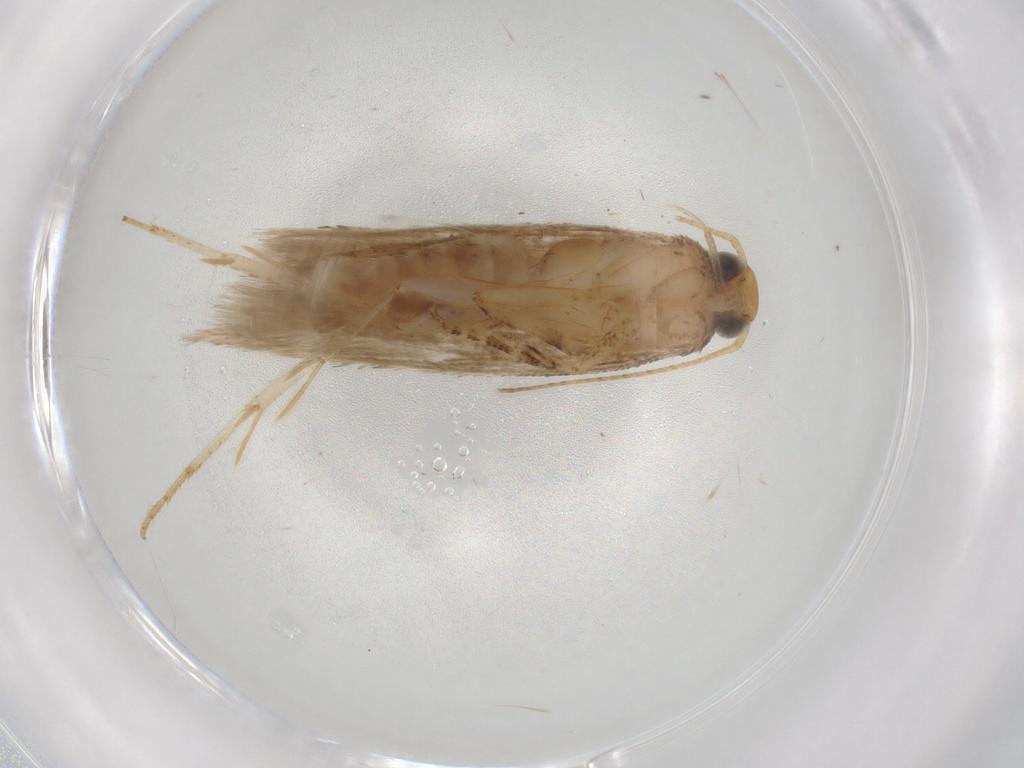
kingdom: Animalia
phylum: Arthropoda
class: Insecta
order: Lepidoptera
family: Gelechiidae
